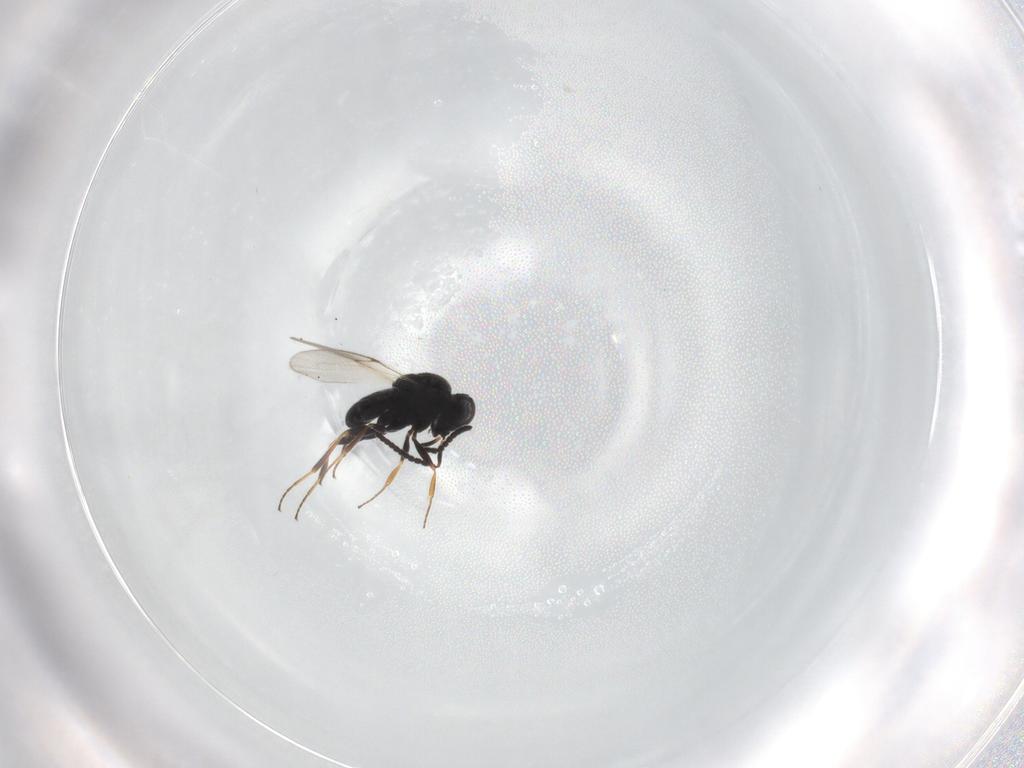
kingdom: Animalia
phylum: Arthropoda
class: Insecta
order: Hymenoptera
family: Scelionidae
